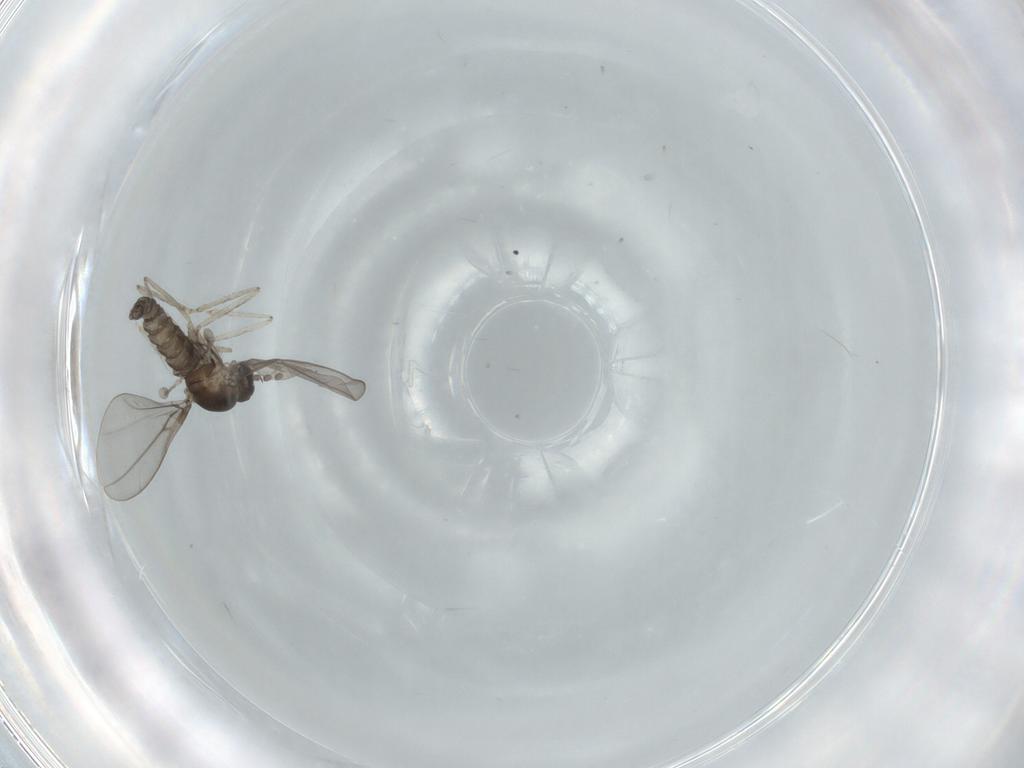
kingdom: Animalia
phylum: Arthropoda
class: Insecta
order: Diptera
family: Cecidomyiidae
